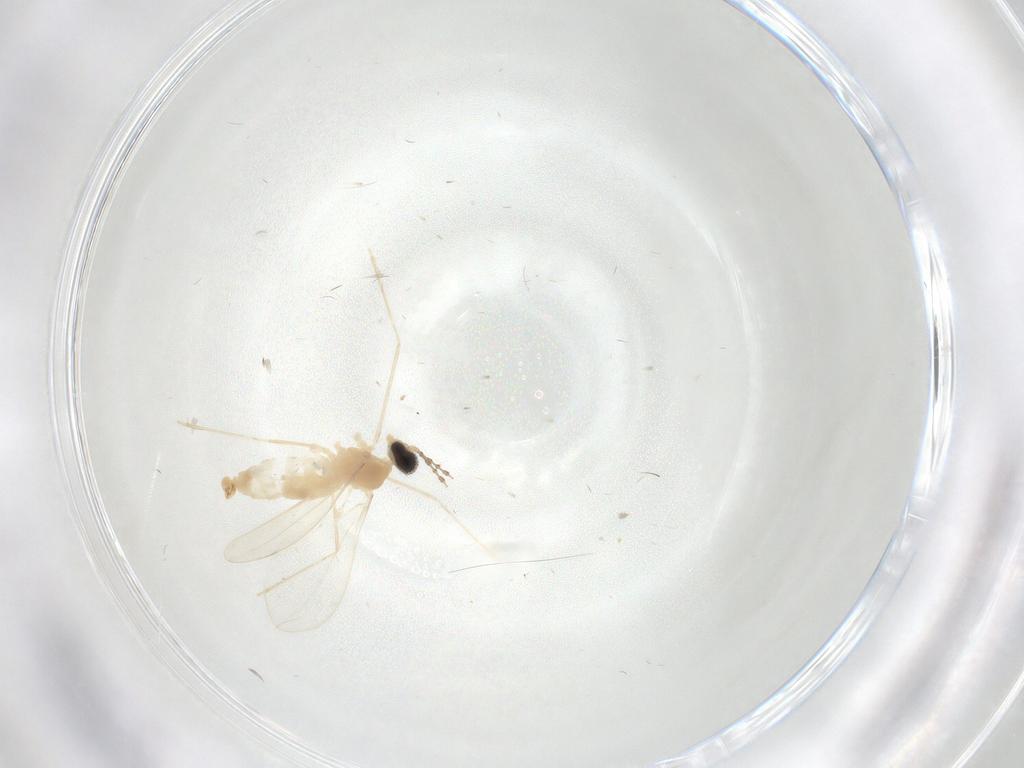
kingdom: Animalia
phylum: Arthropoda
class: Insecta
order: Diptera
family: Cecidomyiidae
